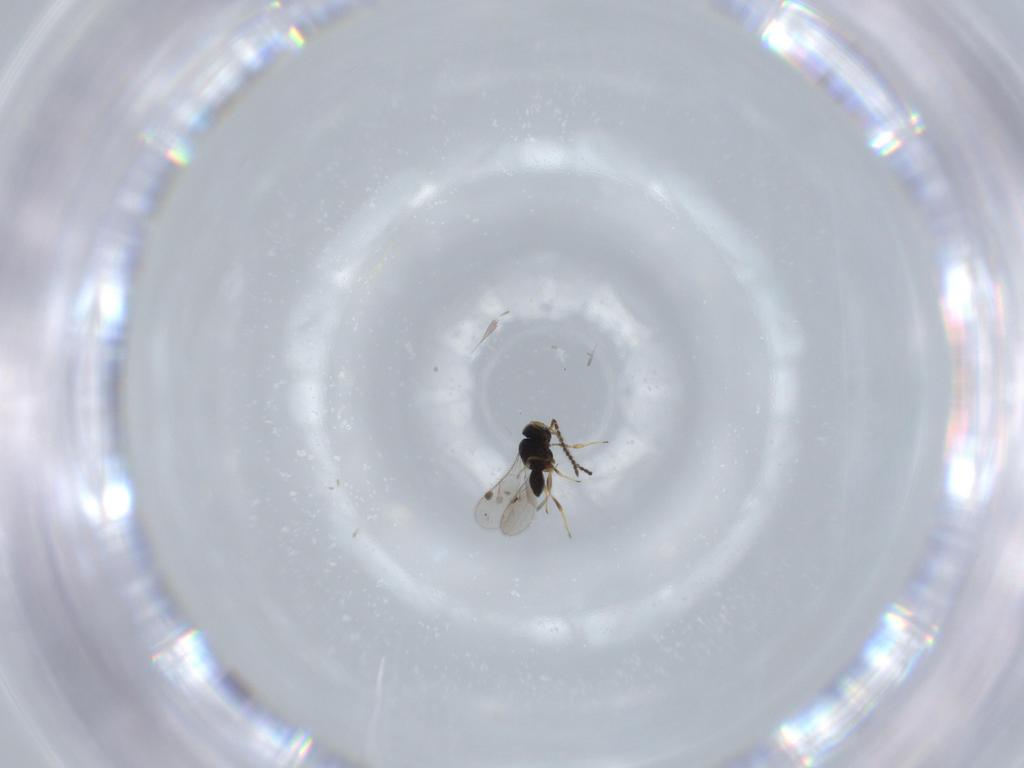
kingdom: Animalia
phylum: Arthropoda
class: Insecta
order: Hymenoptera
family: Scelionidae
